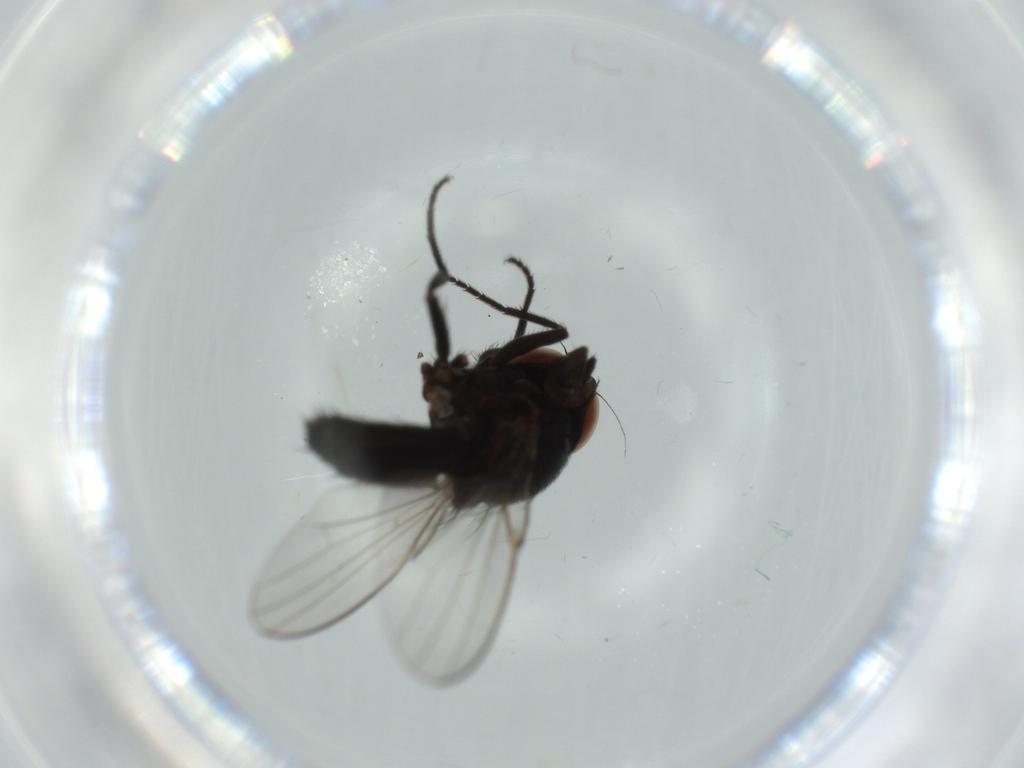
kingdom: Animalia
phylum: Arthropoda
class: Insecta
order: Diptera
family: Milichiidae
